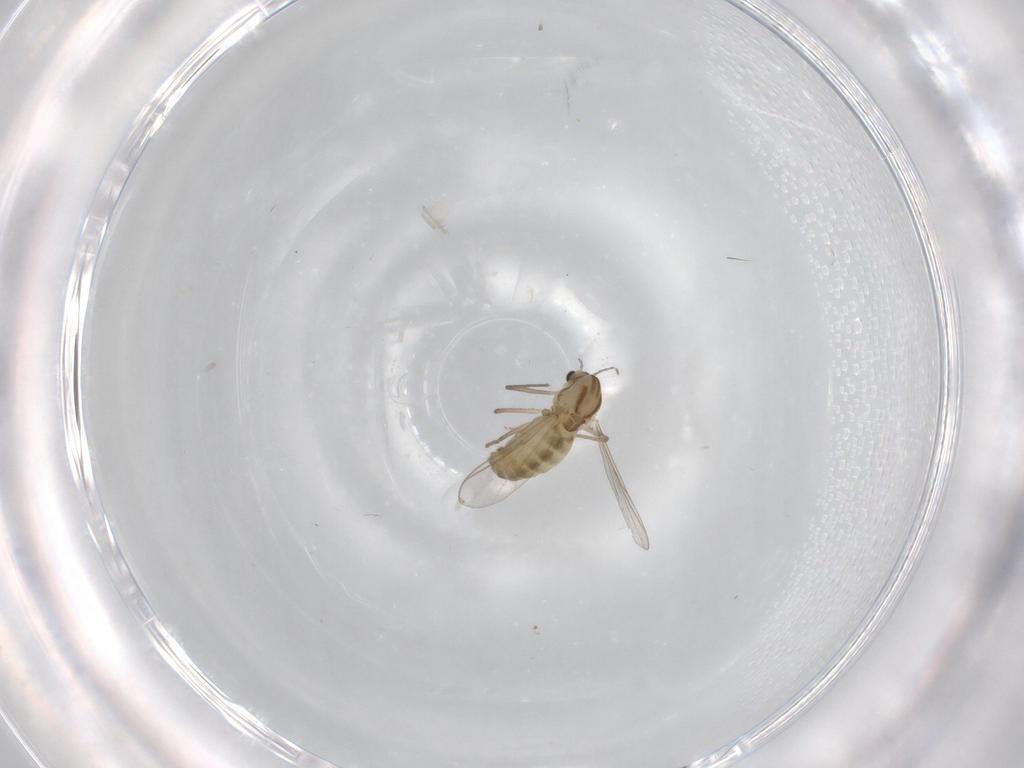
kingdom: Animalia
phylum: Arthropoda
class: Insecta
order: Diptera
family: Chironomidae
